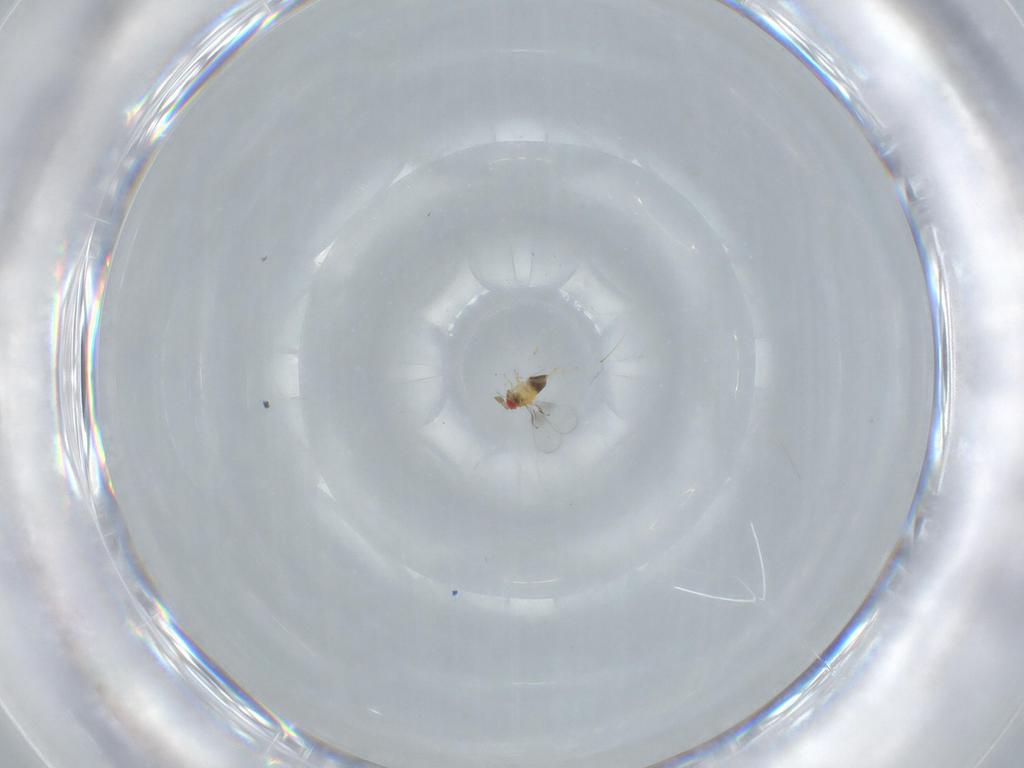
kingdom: Animalia
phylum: Arthropoda
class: Insecta
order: Hymenoptera
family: Trichogrammatidae
